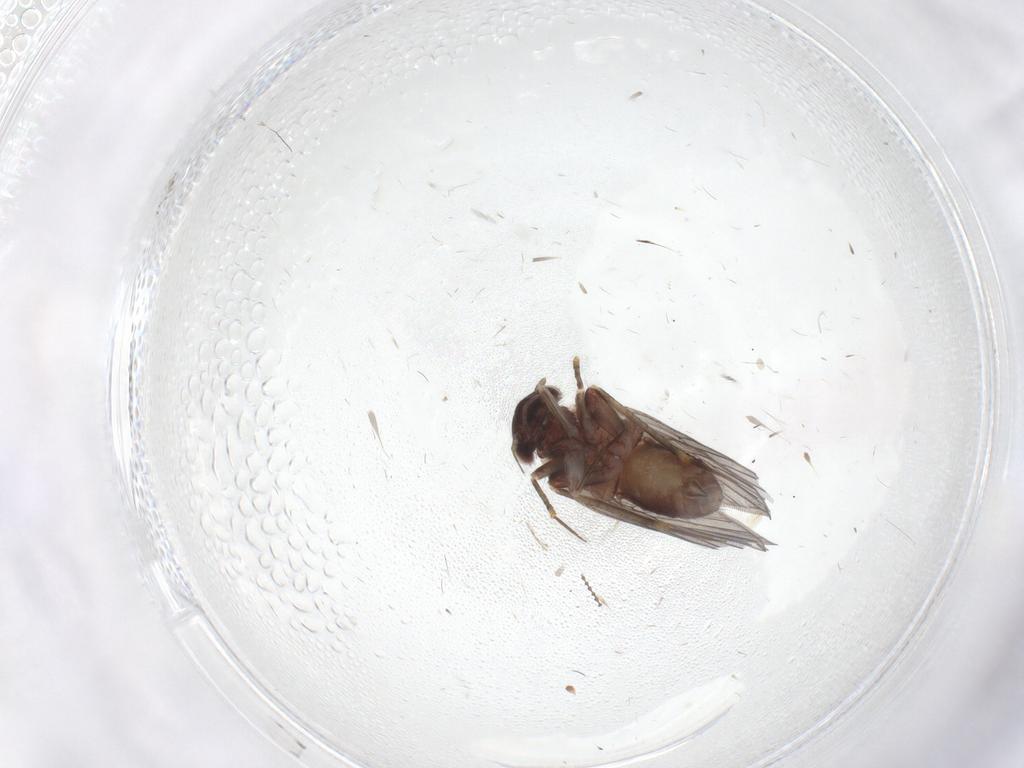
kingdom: Animalia
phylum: Arthropoda
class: Insecta
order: Psocodea
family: Lepidopsocidae
